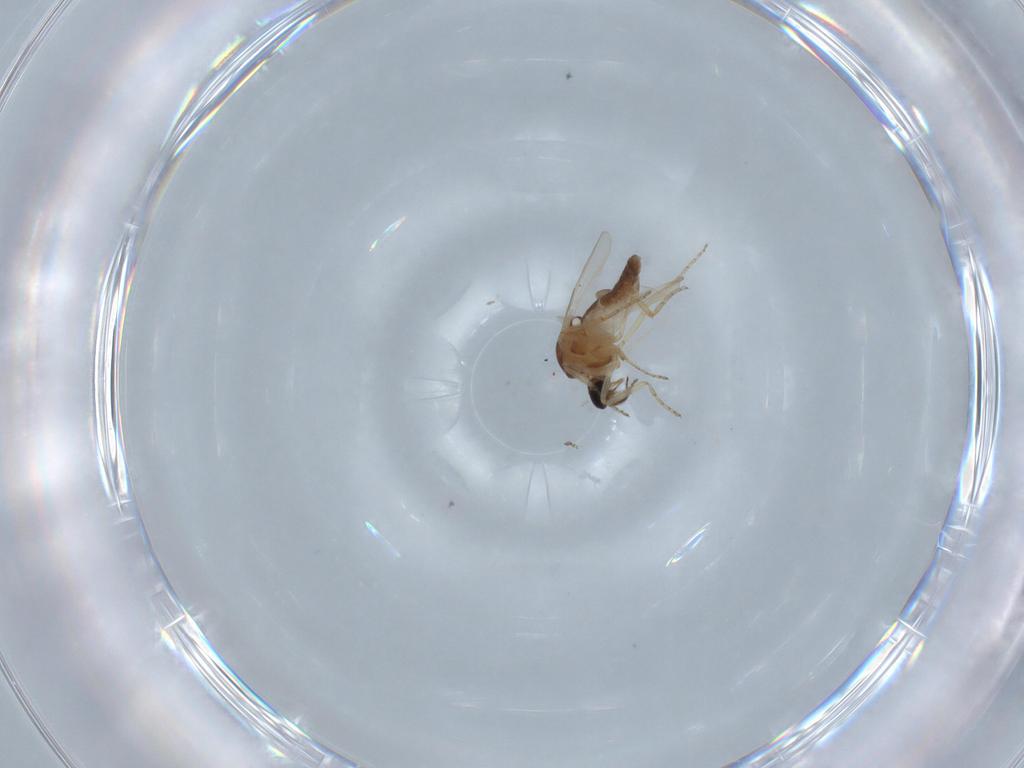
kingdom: Animalia
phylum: Arthropoda
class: Insecta
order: Diptera
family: Ceratopogonidae
